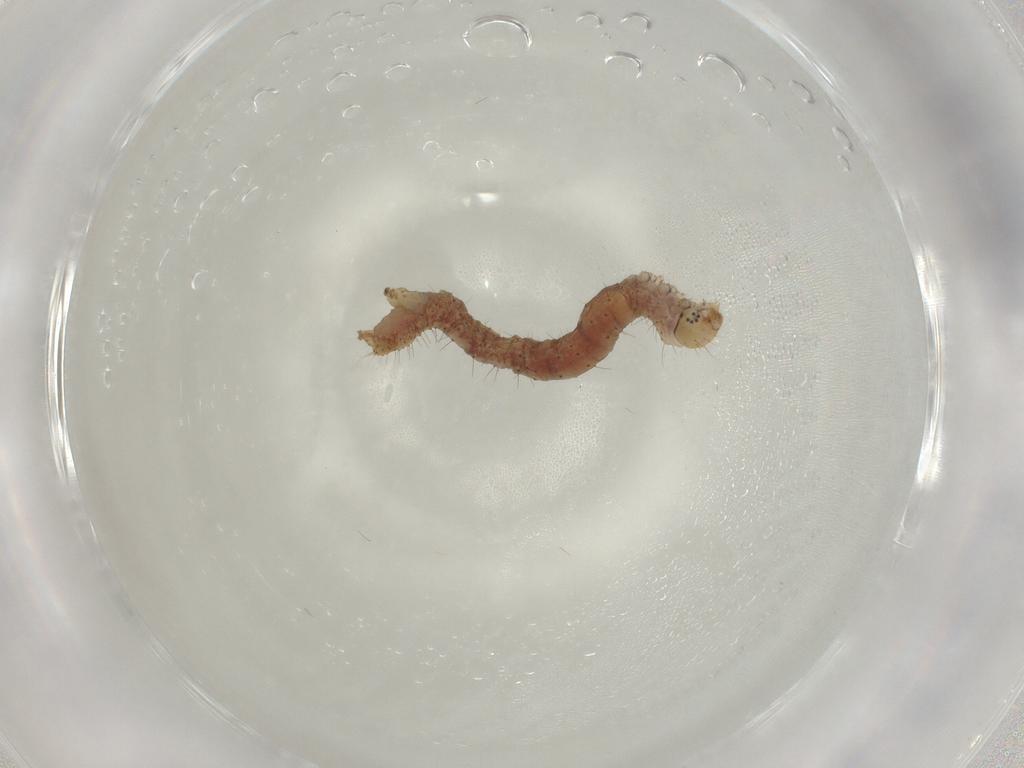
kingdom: Animalia
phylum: Arthropoda
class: Insecta
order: Lepidoptera
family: Geometridae
